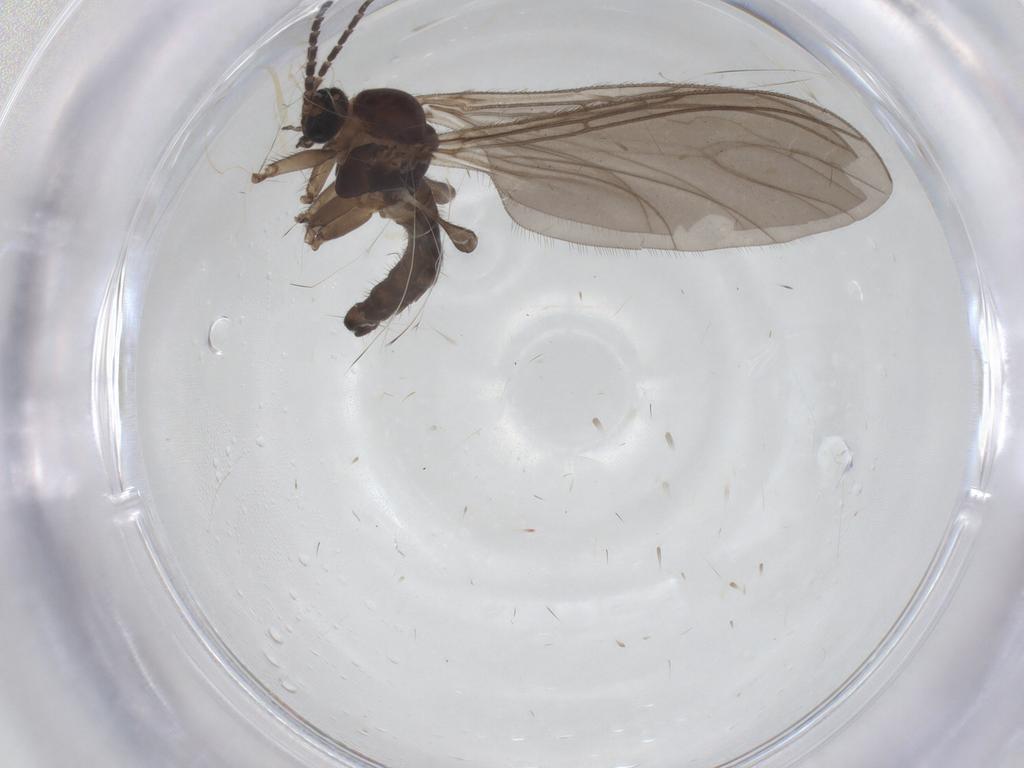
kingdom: Animalia
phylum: Arthropoda
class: Insecta
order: Diptera
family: Sciaridae
